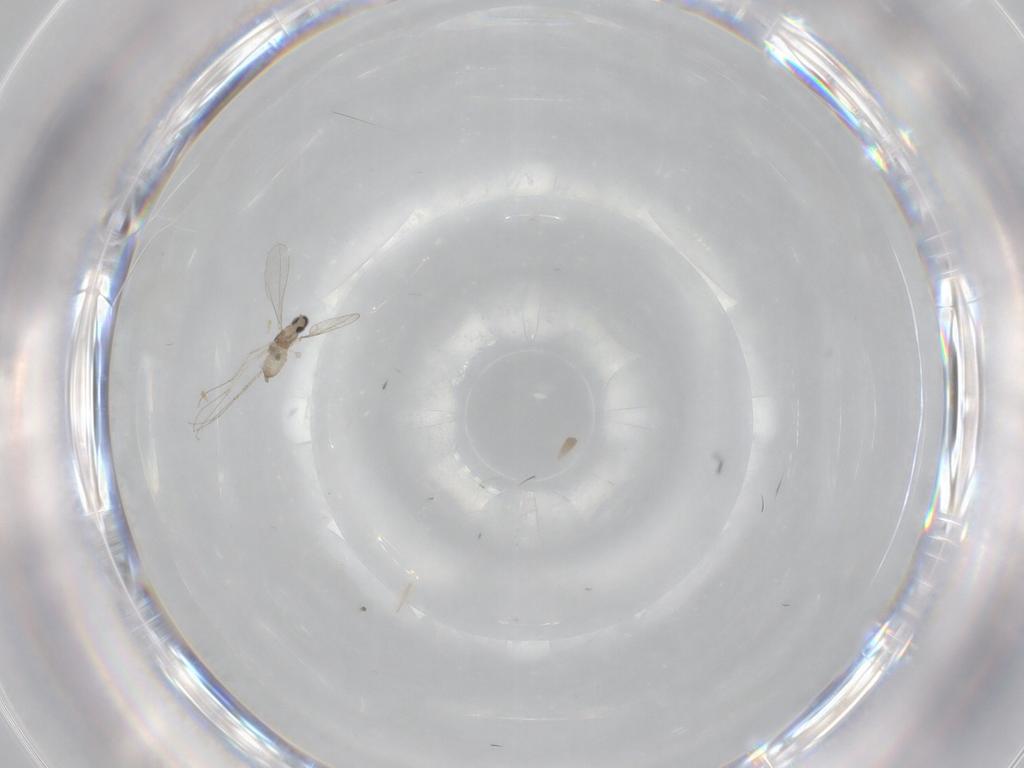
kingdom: Animalia
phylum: Arthropoda
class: Insecta
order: Diptera
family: Cecidomyiidae
